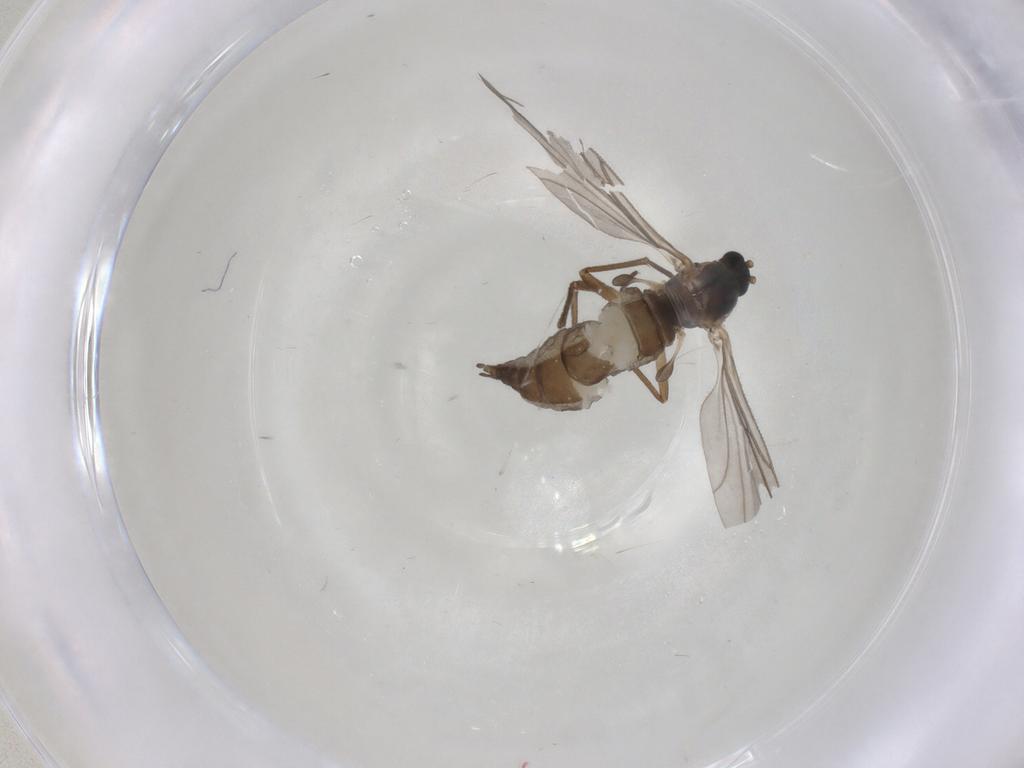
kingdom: Animalia
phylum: Arthropoda
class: Insecta
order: Diptera
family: Sciaridae
